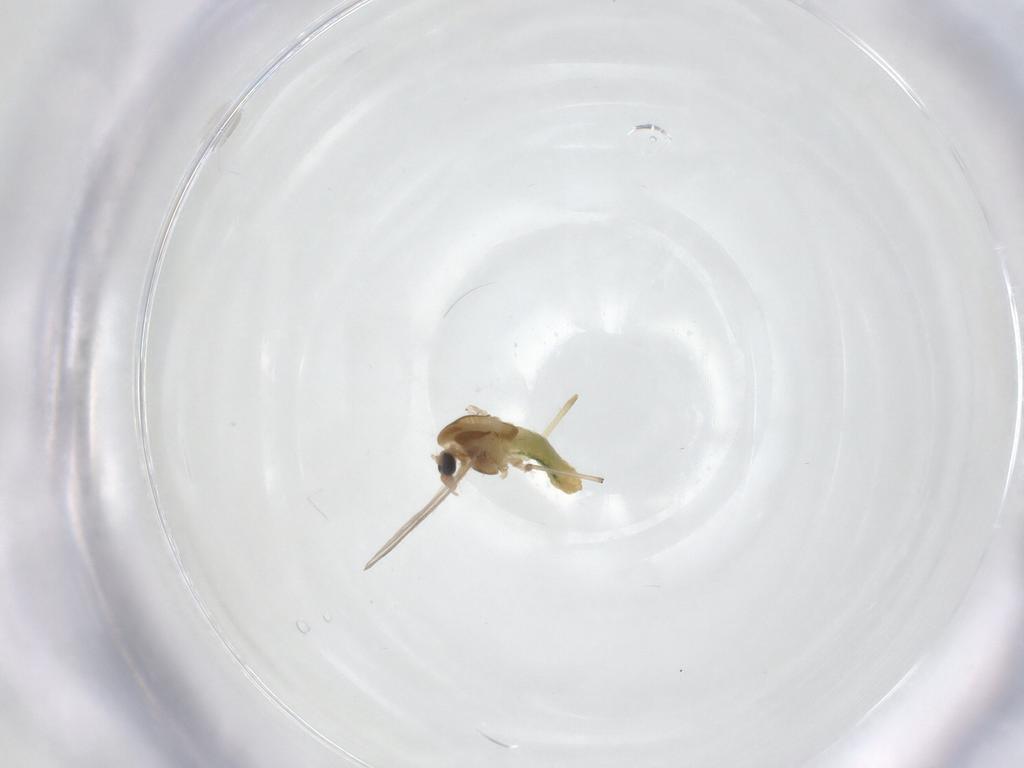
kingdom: Animalia
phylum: Arthropoda
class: Insecta
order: Diptera
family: Chironomidae
